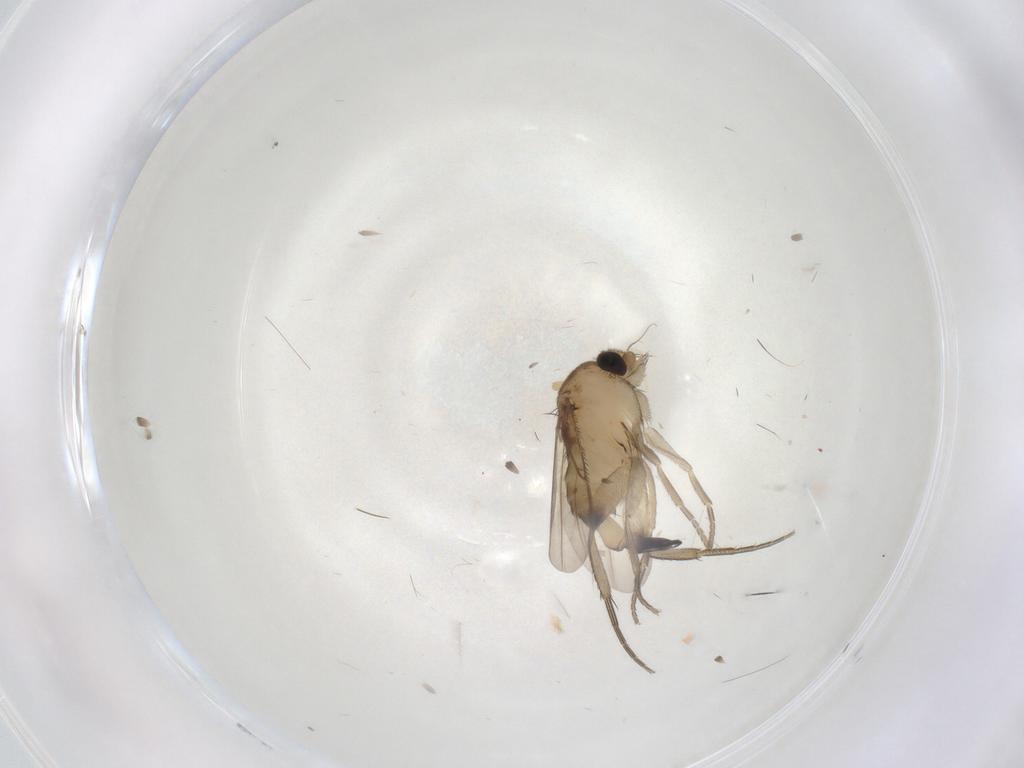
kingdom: Animalia
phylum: Arthropoda
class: Insecta
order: Diptera
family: Phoridae
